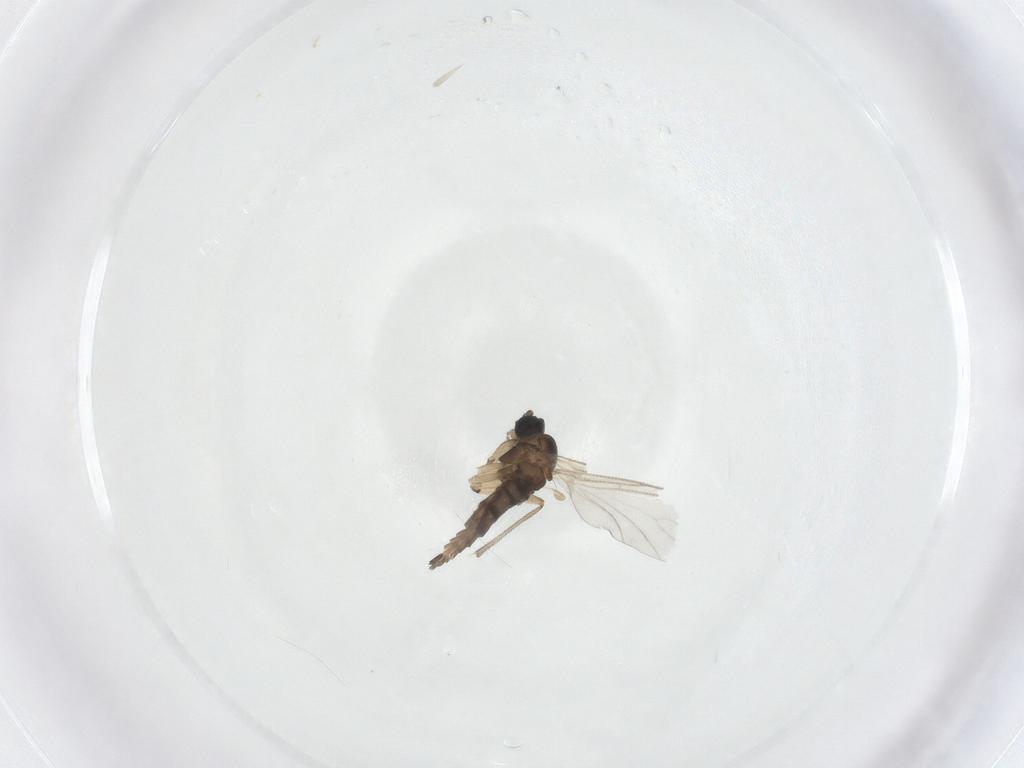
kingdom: Animalia
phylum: Arthropoda
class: Insecta
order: Diptera
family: Sciaridae
